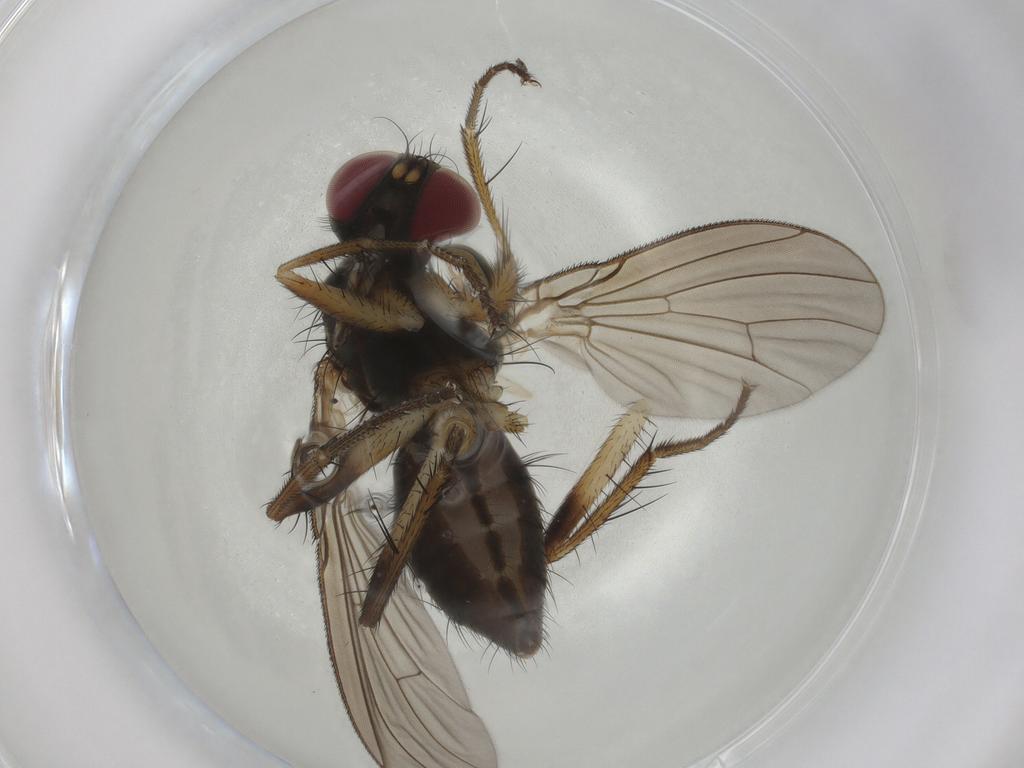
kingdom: Animalia
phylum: Arthropoda
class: Insecta
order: Diptera
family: Muscidae
